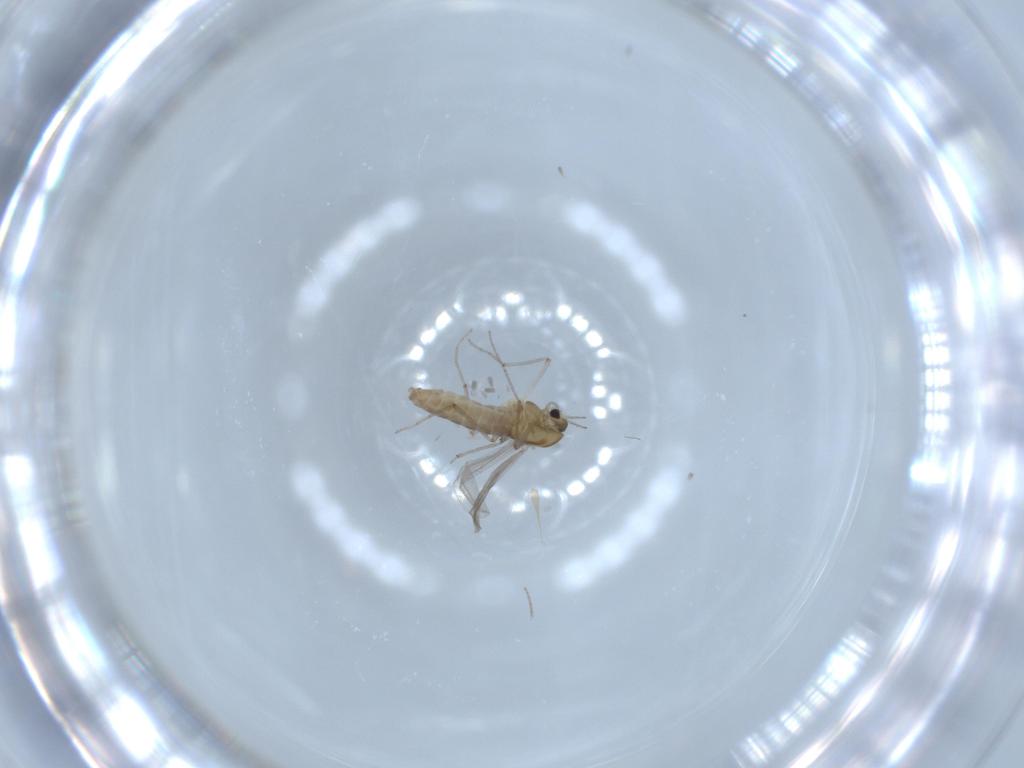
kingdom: Animalia
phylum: Arthropoda
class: Insecta
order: Diptera
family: Chironomidae
